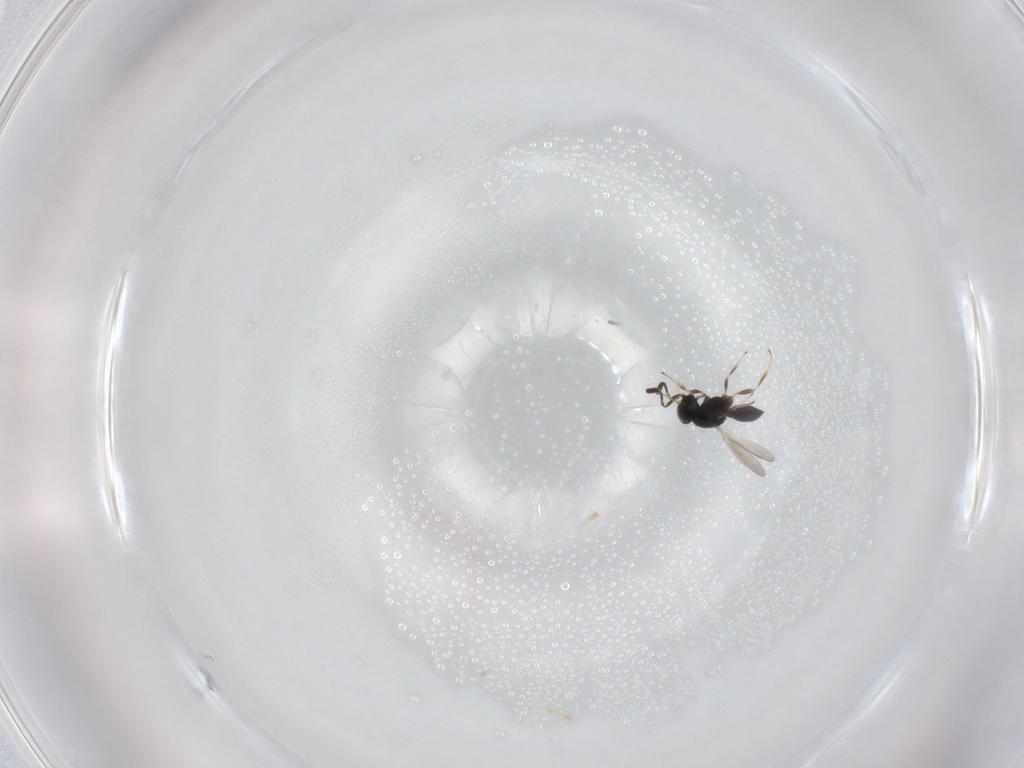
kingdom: Animalia
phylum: Arthropoda
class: Insecta
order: Hymenoptera
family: Scelionidae
